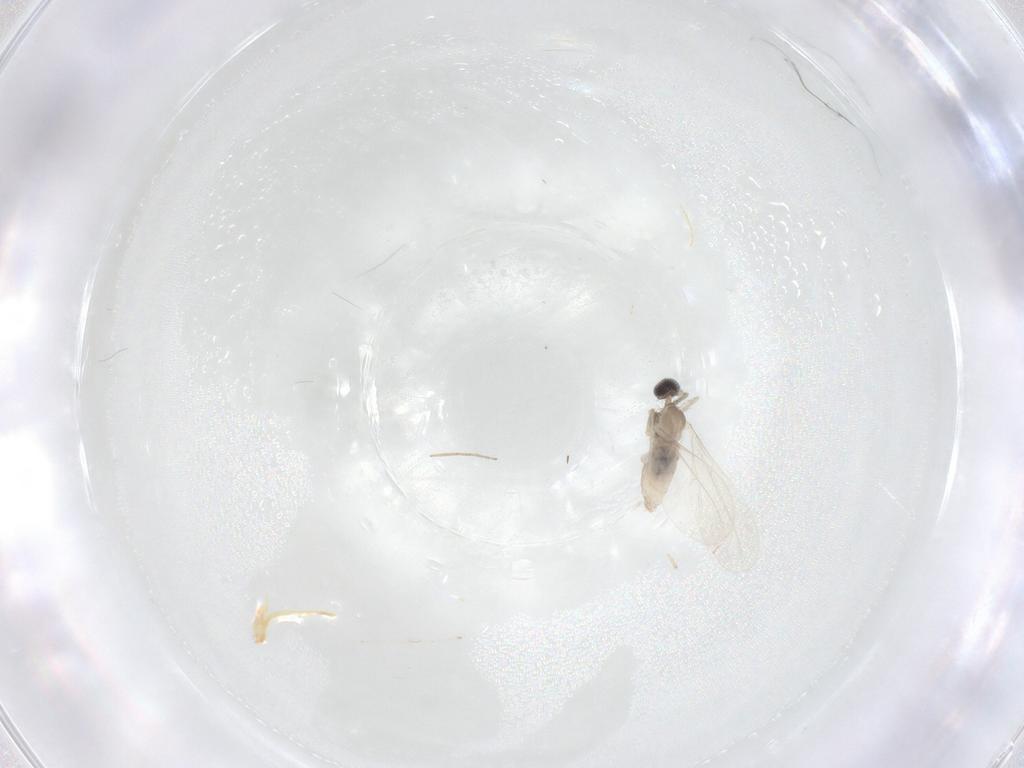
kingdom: Animalia
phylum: Arthropoda
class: Insecta
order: Diptera
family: Cecidomyiidae
